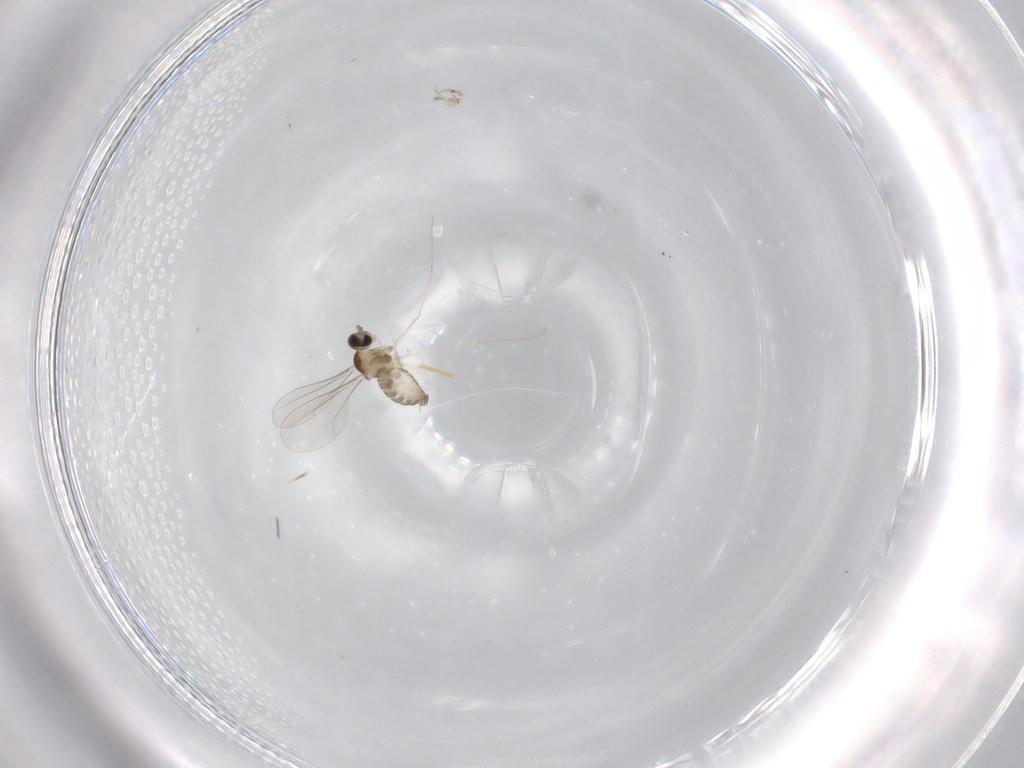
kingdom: Animalia
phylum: Arthropoda
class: Insecta
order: Diptera
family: Cecidomyiidae
